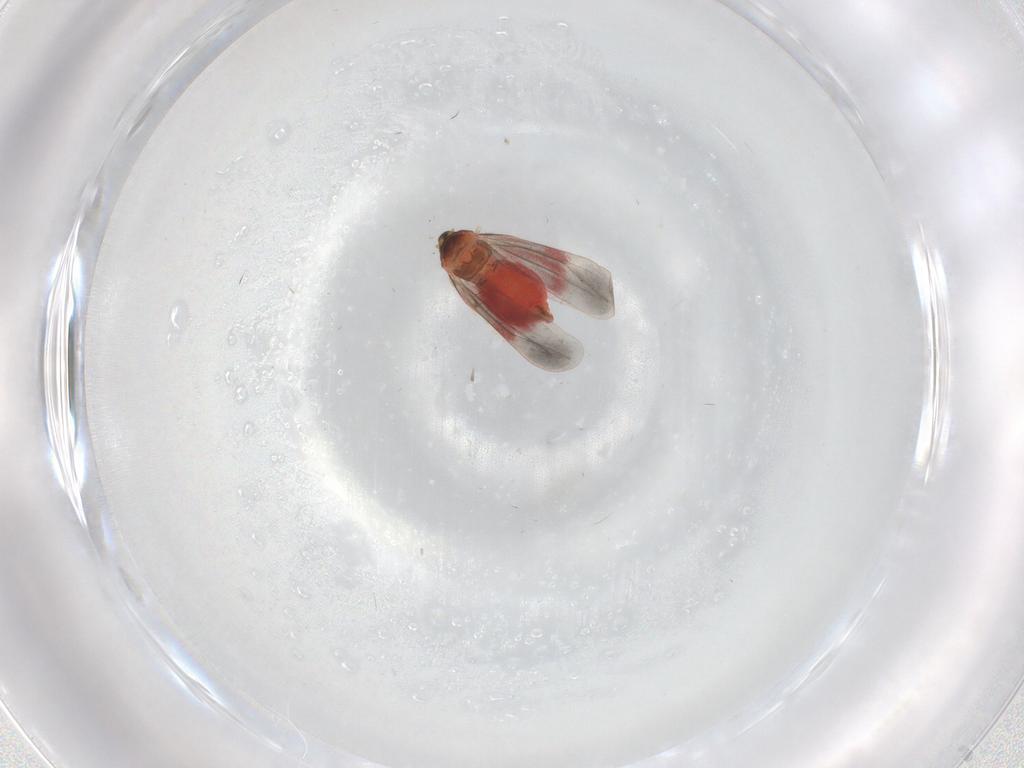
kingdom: Animalia
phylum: Arthropoda
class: Insecta
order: Hemiptera
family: Aleyrodidae
